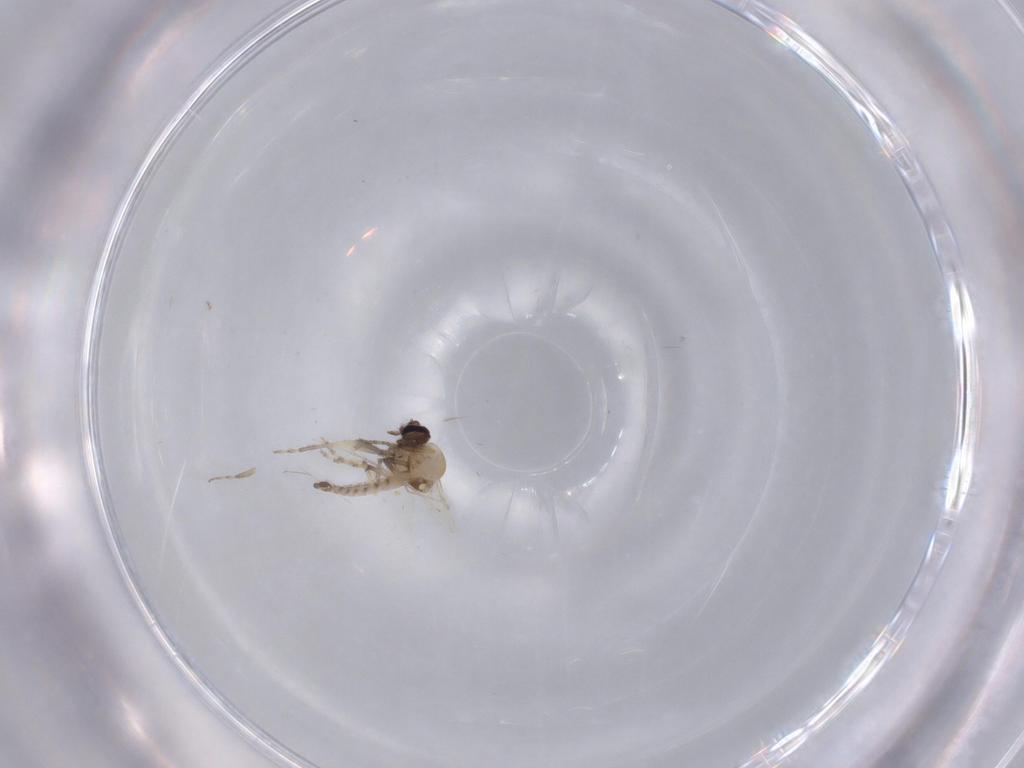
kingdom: Animalia
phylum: Arthropoda
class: Insecta
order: Diptera
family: Cecidomyiidae
